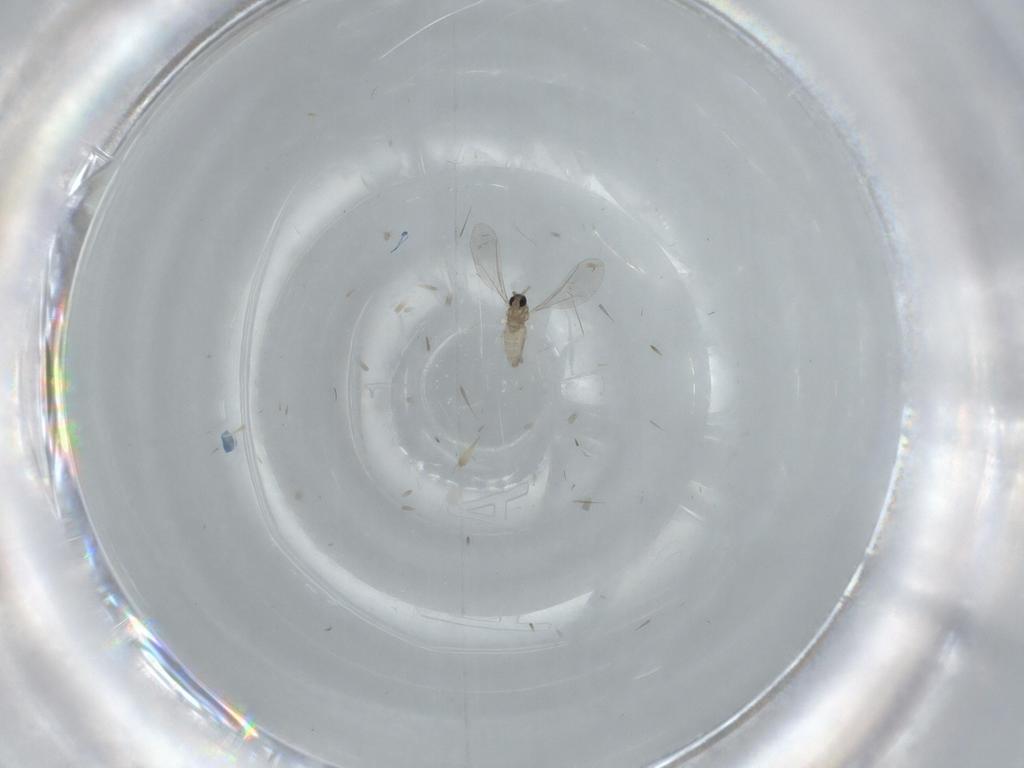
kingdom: Animalia
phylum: Arthropoda
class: Insecta
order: Diptera
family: Cecidomyiidae
